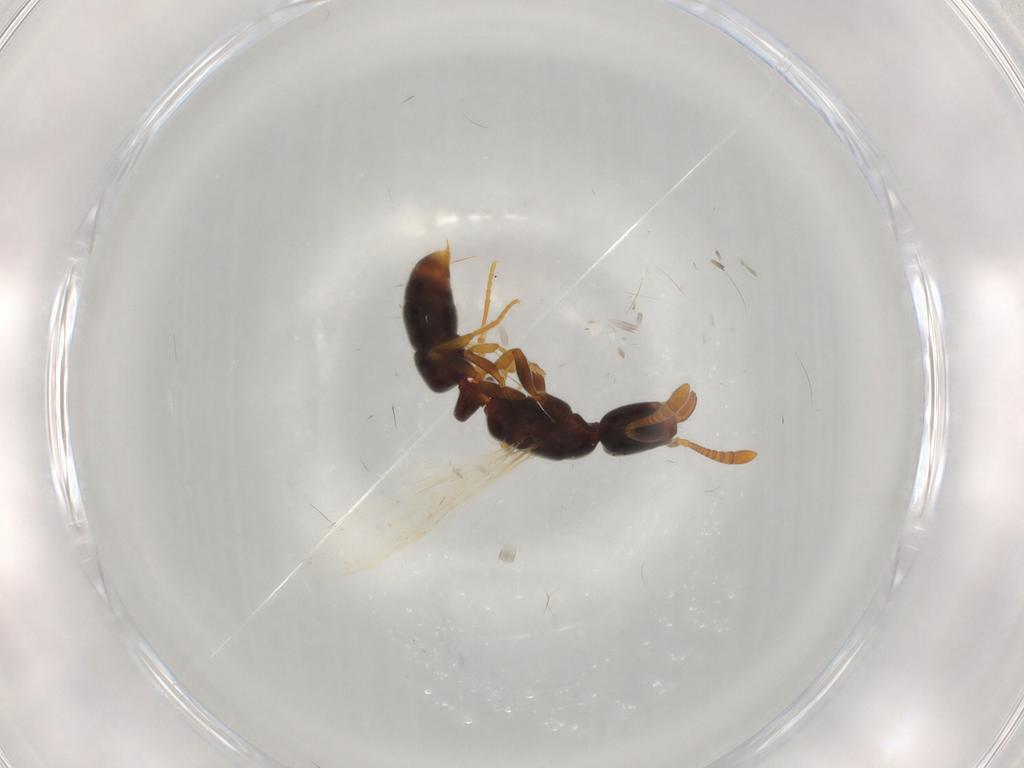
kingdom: Animalia
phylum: Arthropoda
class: Insecta
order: Hymenoptera
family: Formicidae
